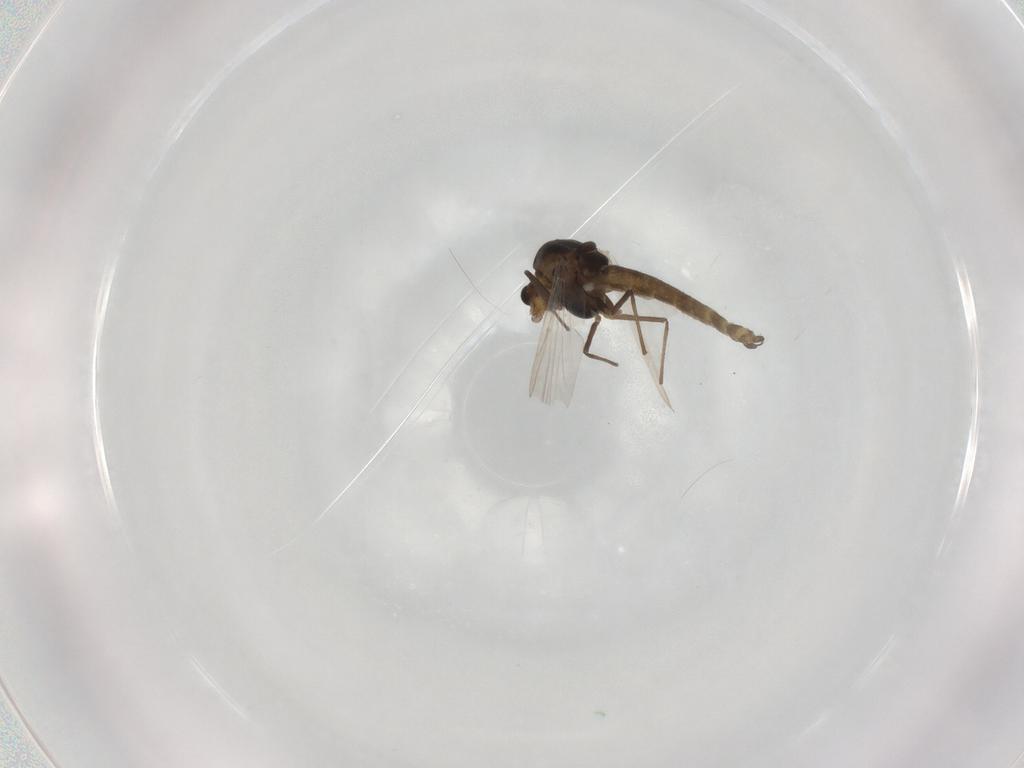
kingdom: Animalia
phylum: Arthropoda
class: Insecta
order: Diptera
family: Chironomidae
